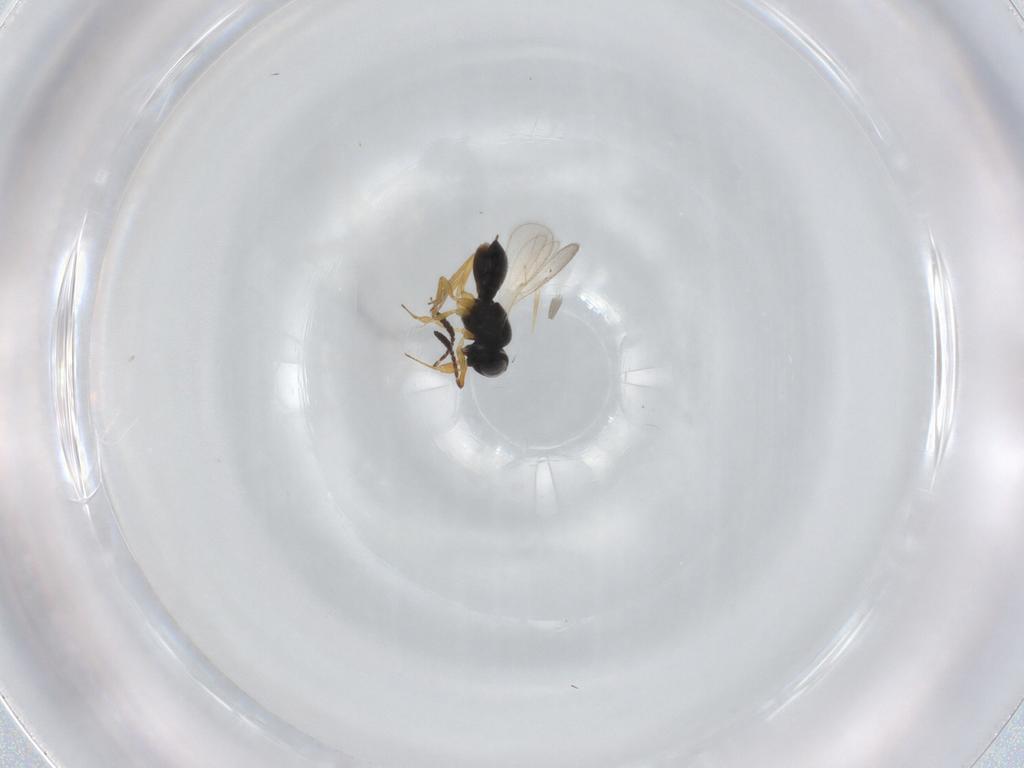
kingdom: Animalia
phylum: Arthropoda
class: Insecta
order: Hymenoptera
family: Scelionidae
